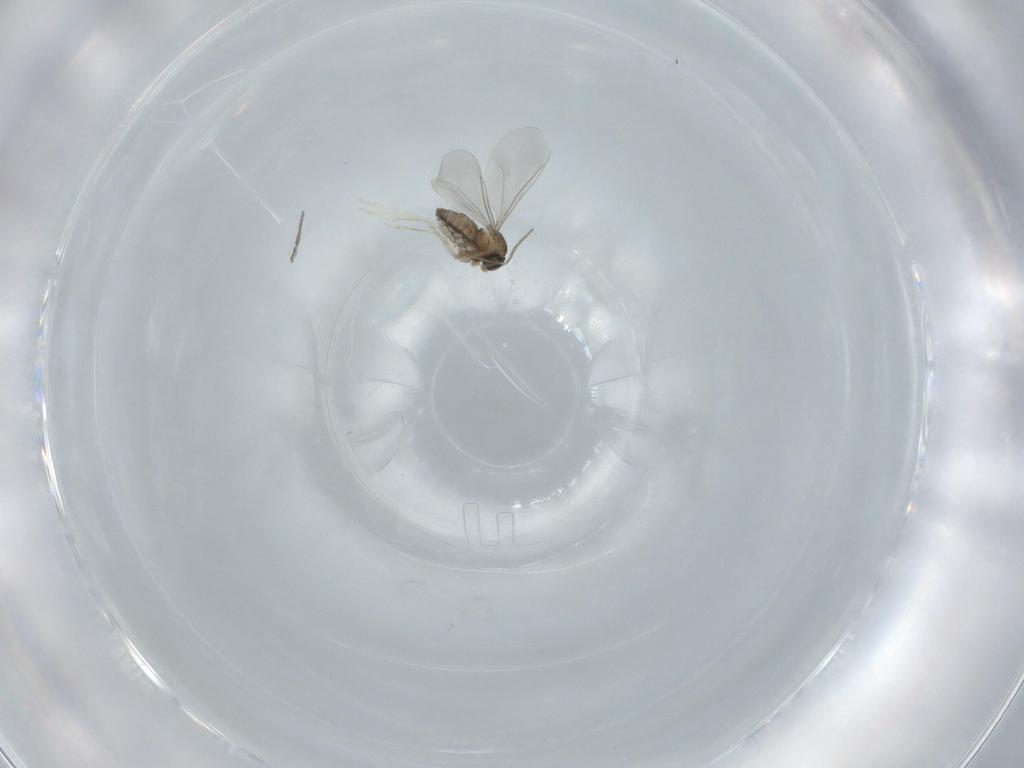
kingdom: Animalia
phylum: Arthropoda
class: Insecta
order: Diptera
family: Cecidomyiidae
